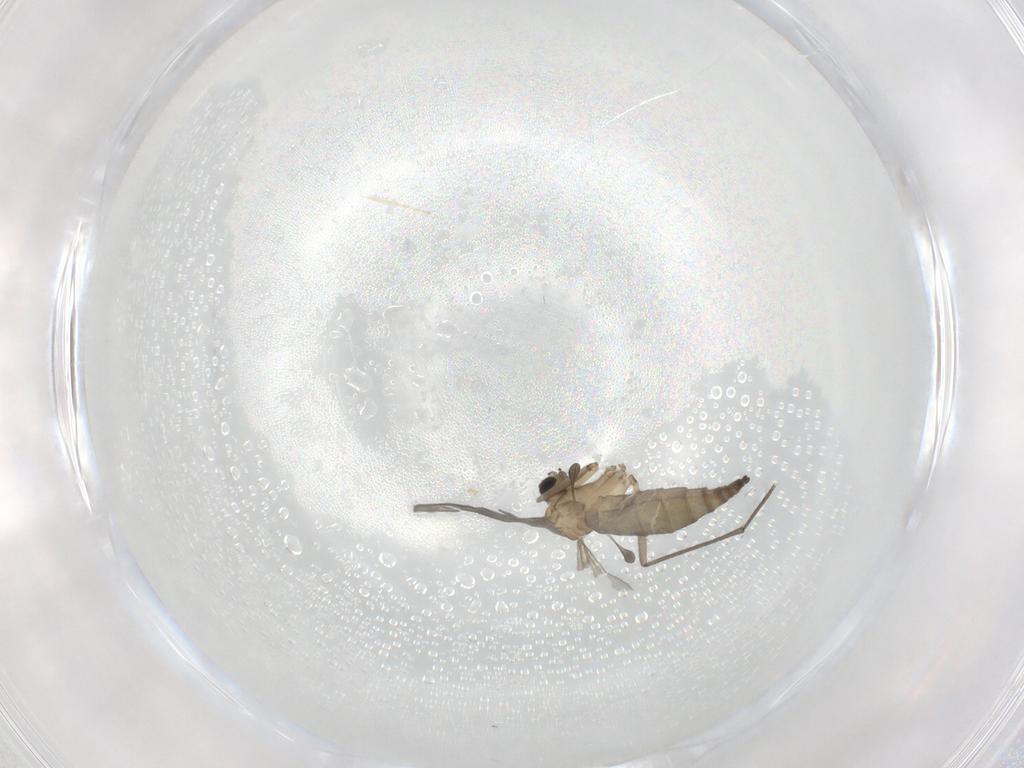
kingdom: Animalia
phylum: Arthropoda
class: Insecta
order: Diptera
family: Sciaridae
